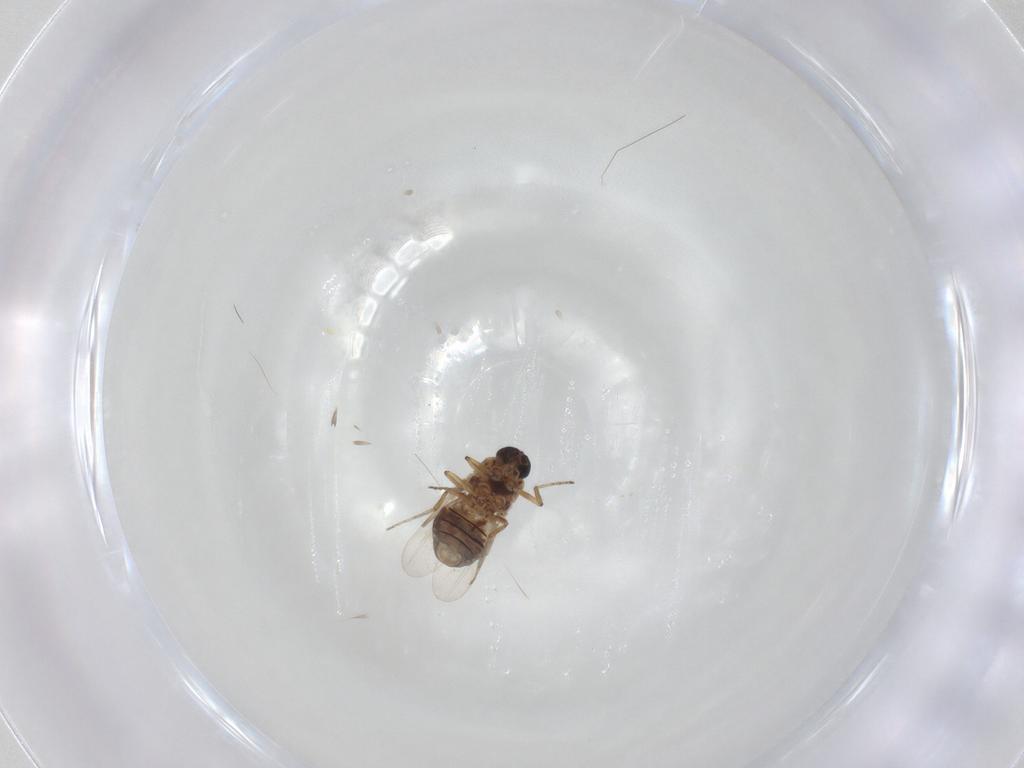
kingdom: Animalia
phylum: Arthropoda
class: Insecta
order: Diptera
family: Ceratopogonidae
